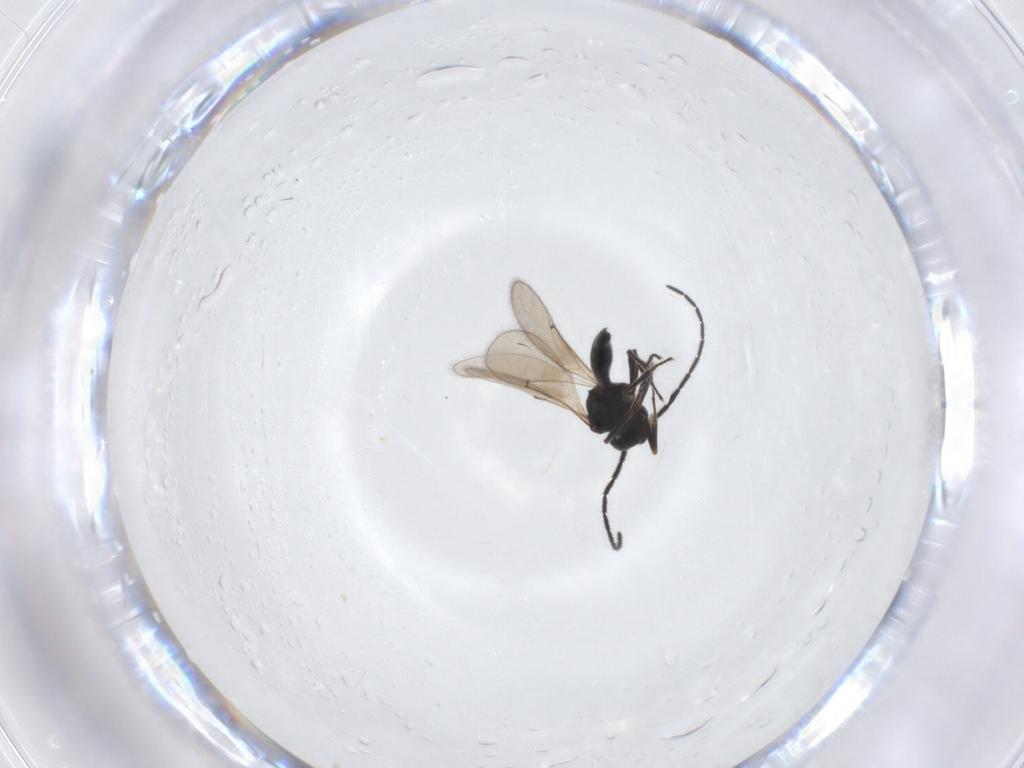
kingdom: Animalia
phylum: Arthropoda
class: Insecta
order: Hymenoptera
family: Scelionidae
